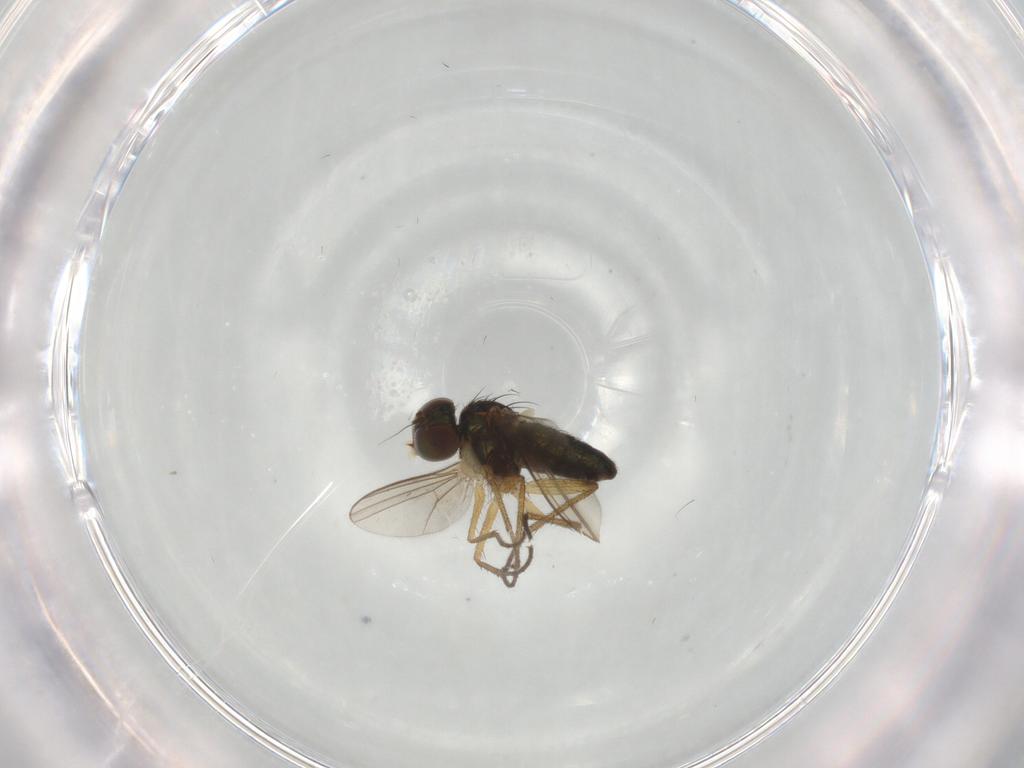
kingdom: Animalia
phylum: Arthropoda
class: Insecta
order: Diptera
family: Dolichopodidae
